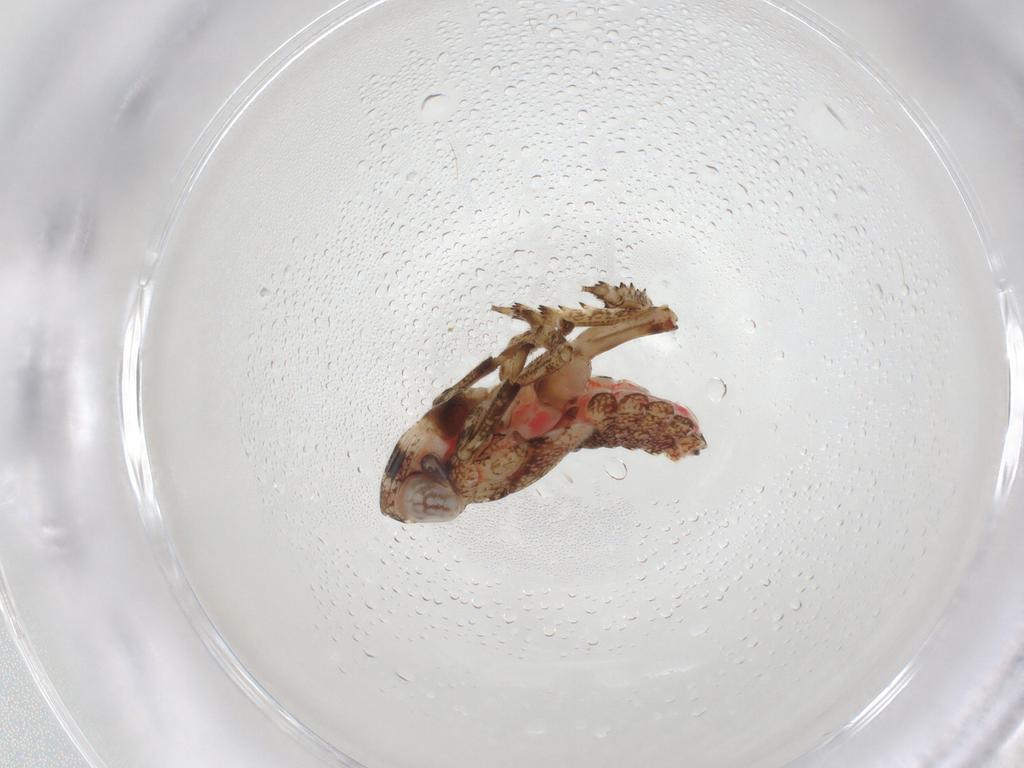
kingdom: Animalia
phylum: Arthropoda
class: Insecta
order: Hemiptera
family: Issidae
